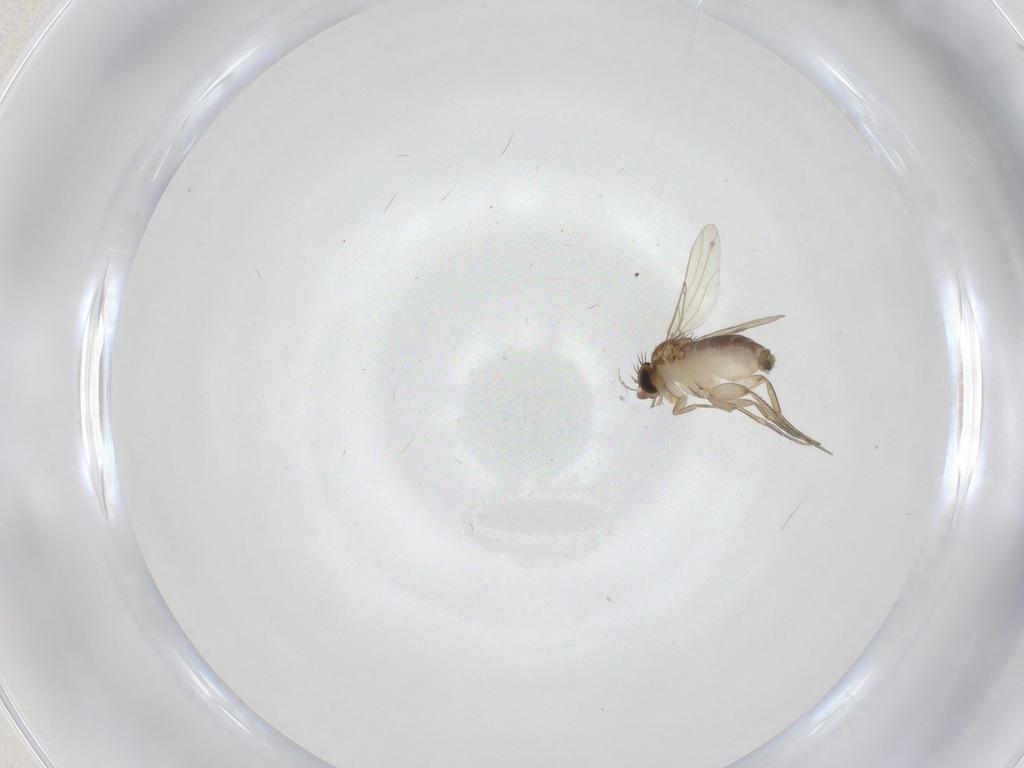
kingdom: Animalia
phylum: Arthropoda
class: Insecta
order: Diptera
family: Phoridae
